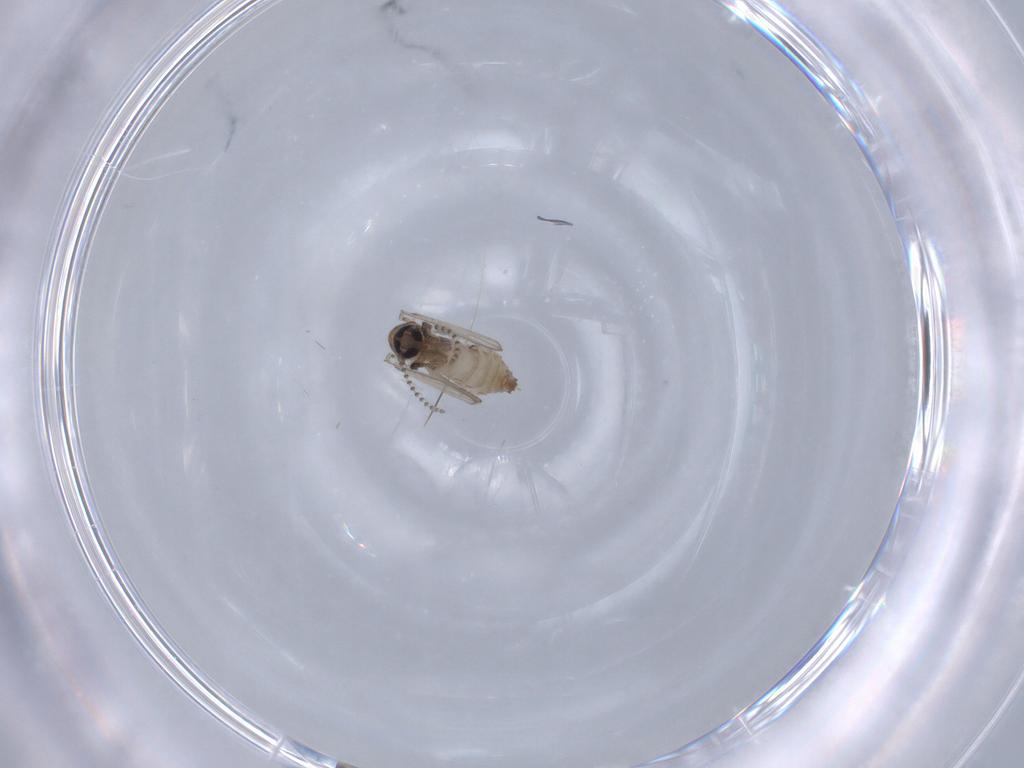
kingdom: Animalia
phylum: Arthropoda
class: Insecta
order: Diptera
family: Psychodidae
